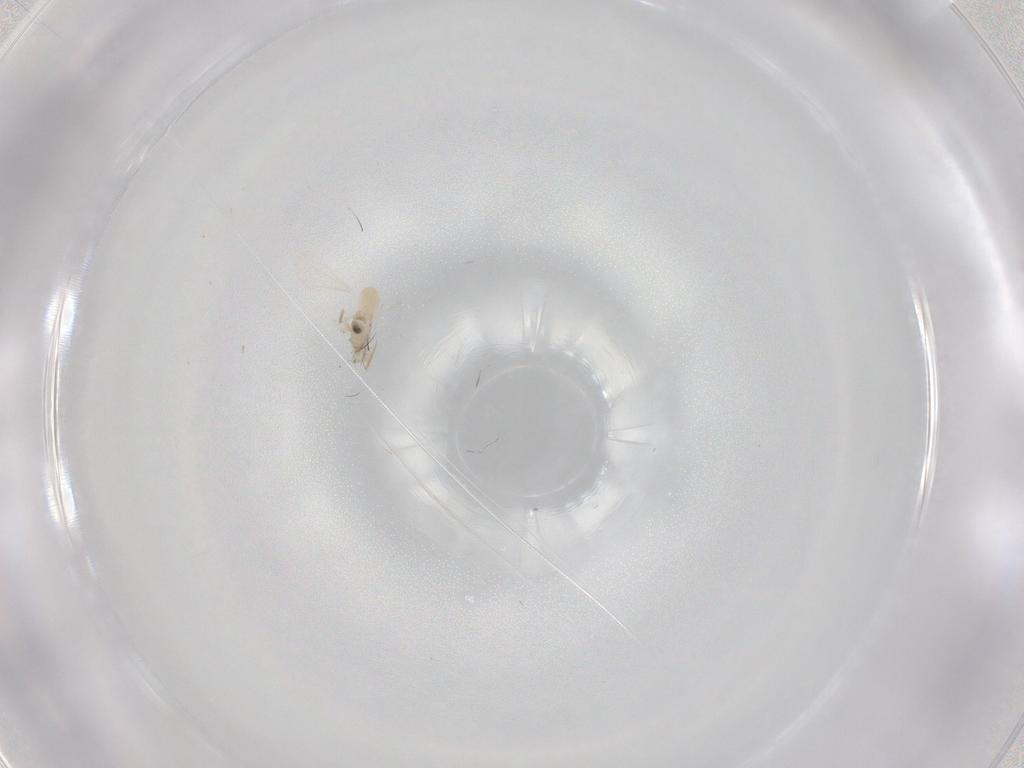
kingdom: Animalia
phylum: Arthropoda
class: Insecta
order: Diptera
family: Cecidomyiidae
